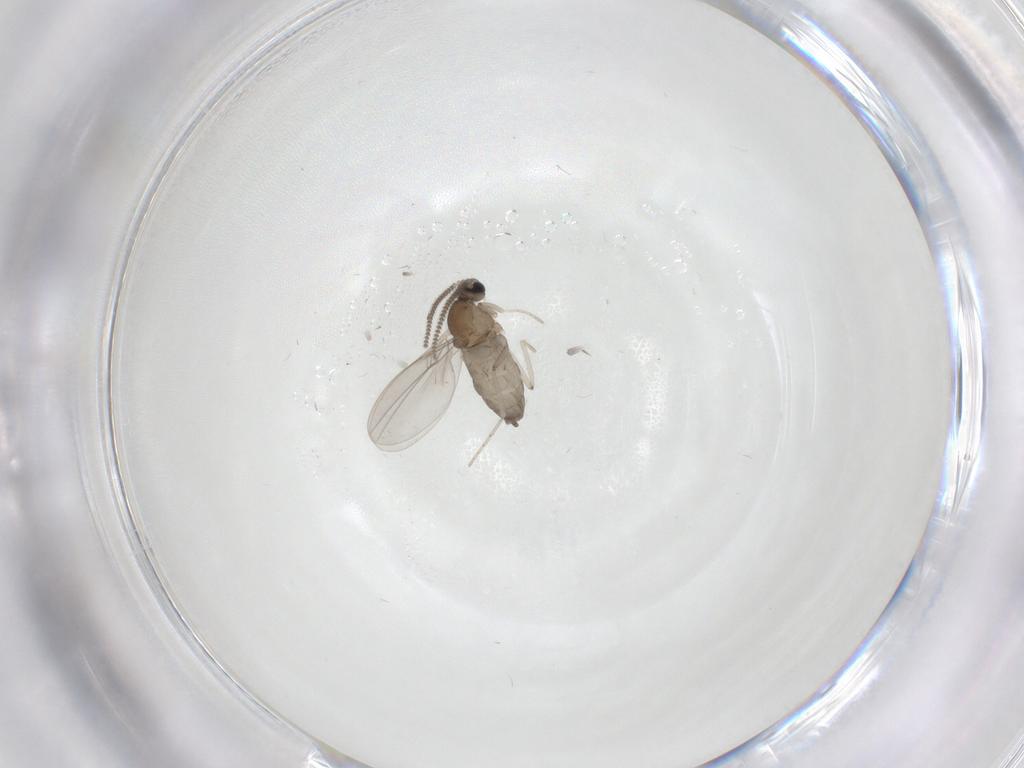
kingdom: Animalia
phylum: Arthropoda
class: Insecta
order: Diptera
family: Cecidomyiidae
